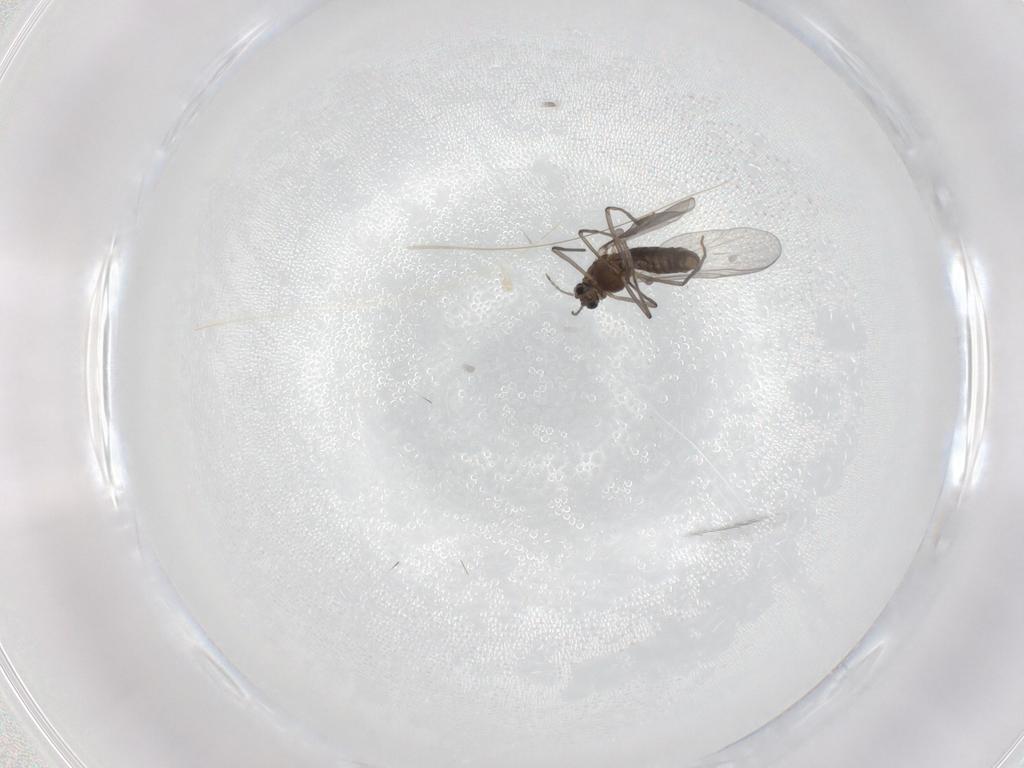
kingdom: Animalia
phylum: Arthropoda
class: Insecta
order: Diptera
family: Chironomidae
